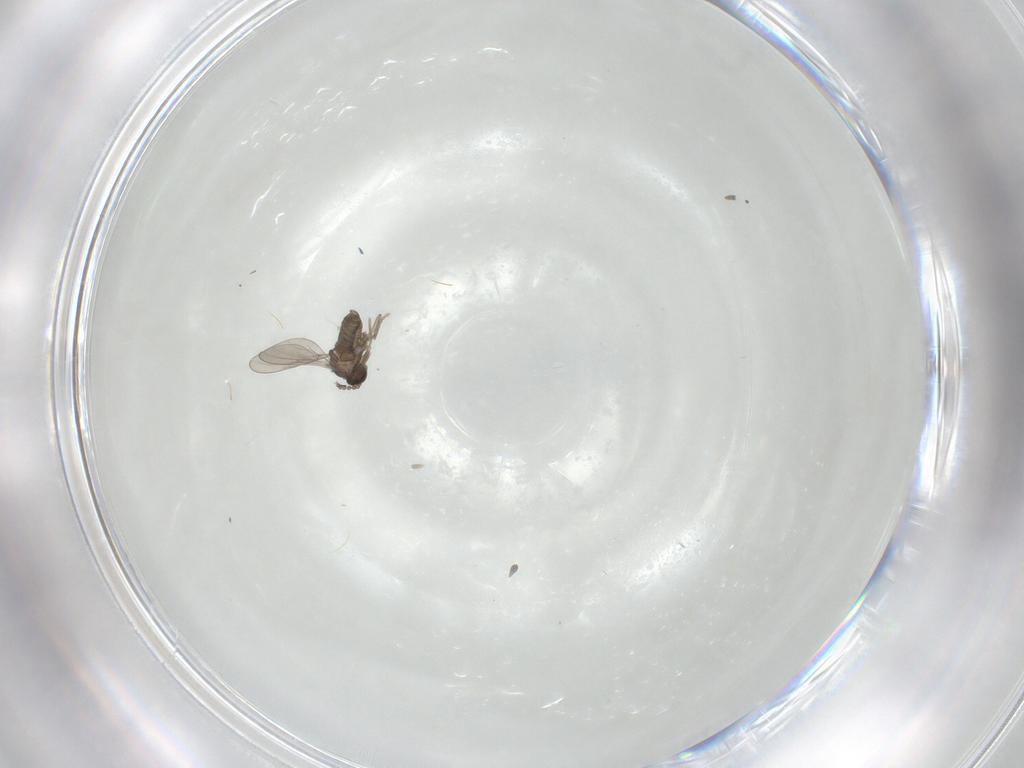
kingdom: Animalia
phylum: Arthropoda
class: Insecta
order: Diptera
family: Cecidomyiidae
